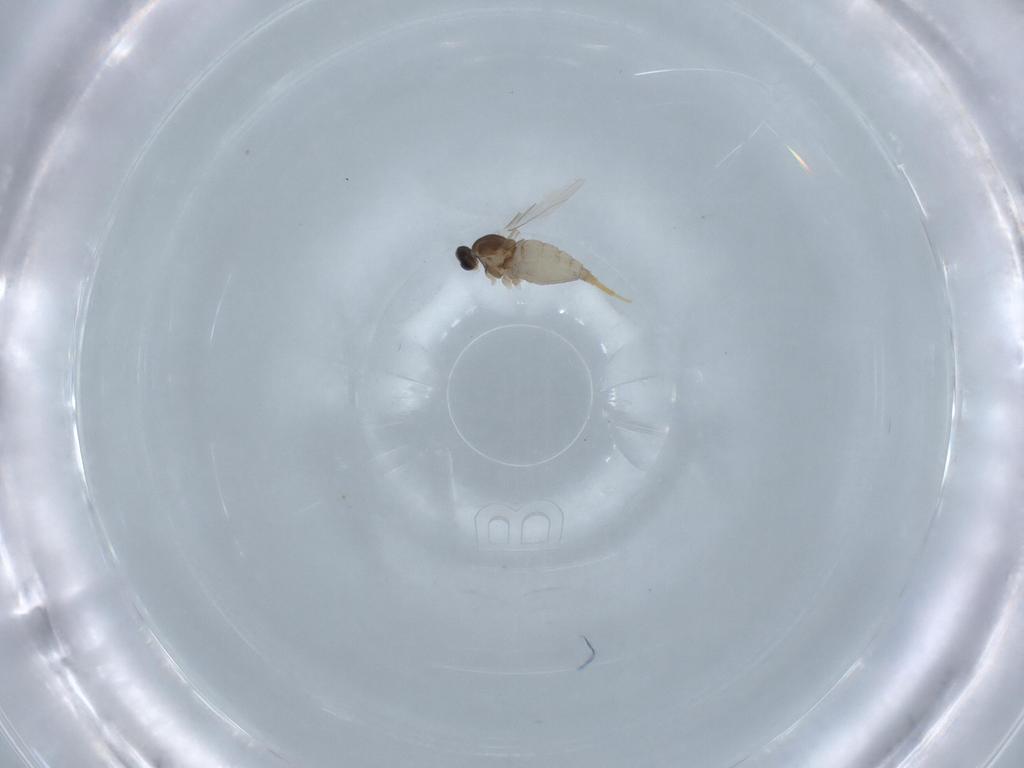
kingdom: Animalia
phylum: Arthropoda
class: Insecta
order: Diptera
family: Cecidomyiidae
